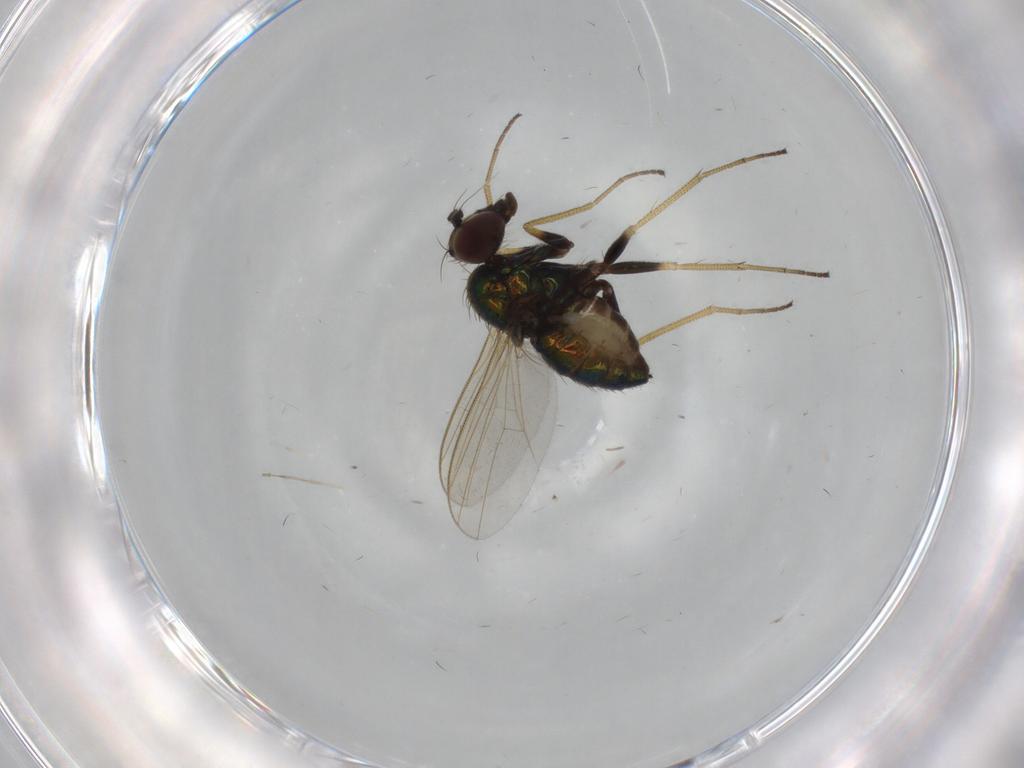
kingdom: Animalia
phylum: Arthropoda
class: Insecta
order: Diptera
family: Dolichopodidae
